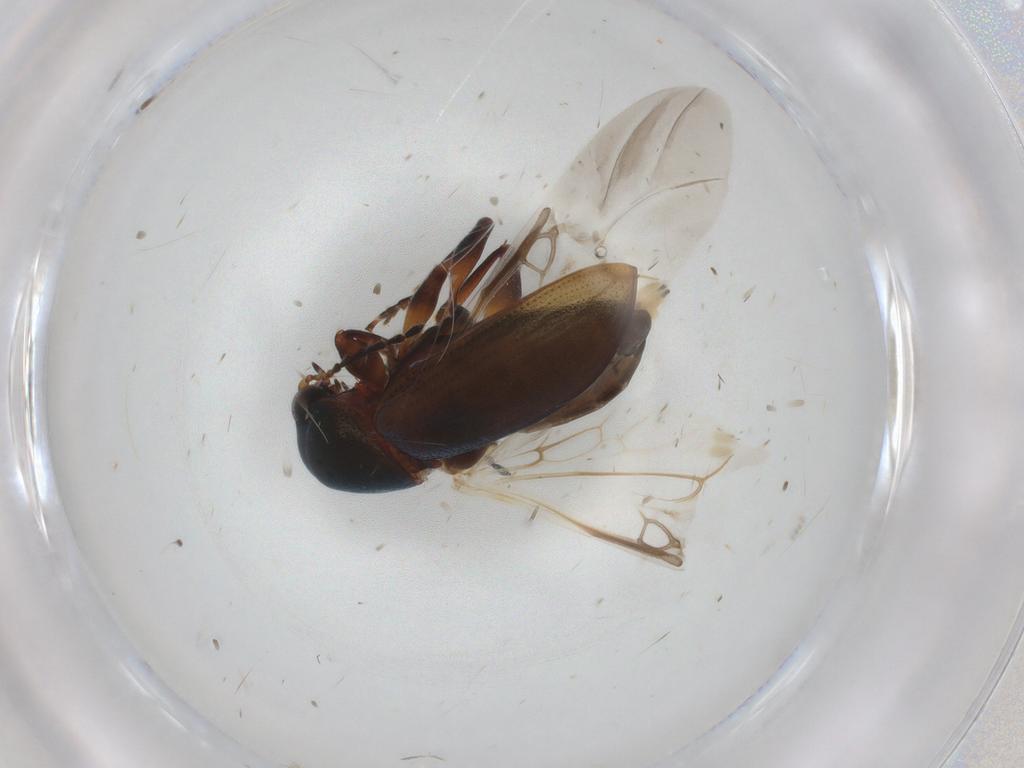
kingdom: Animalia
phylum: Arthropoda
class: Insecta
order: Coleoptera
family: Chrysomelidae
